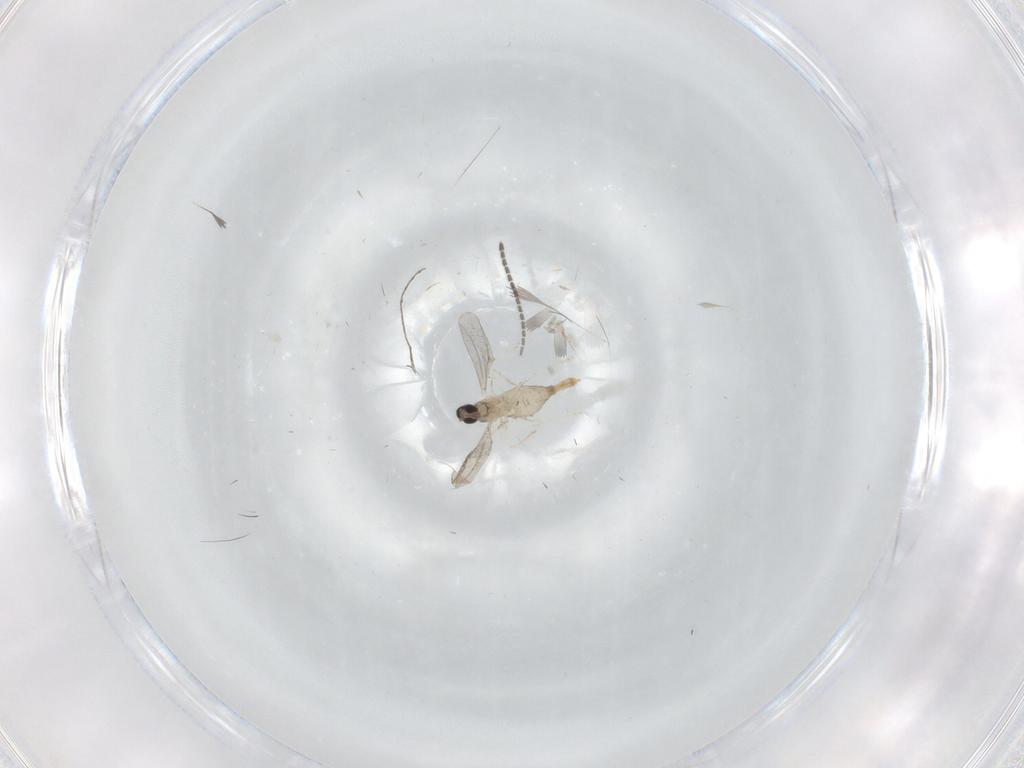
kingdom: Animalia
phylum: Arthropoda
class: Insecta
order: Diptera
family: Cecidomyiidae
